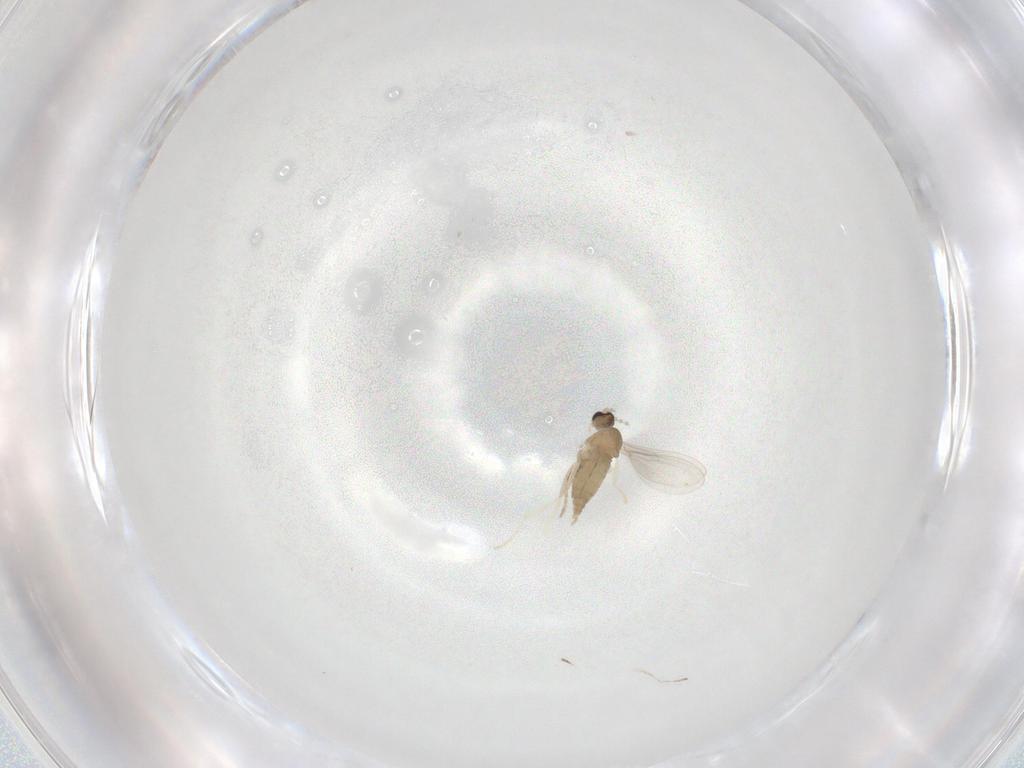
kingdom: Animalia
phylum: Arthropoda
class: Insecta
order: Diptera
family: Cecidomyiidae
